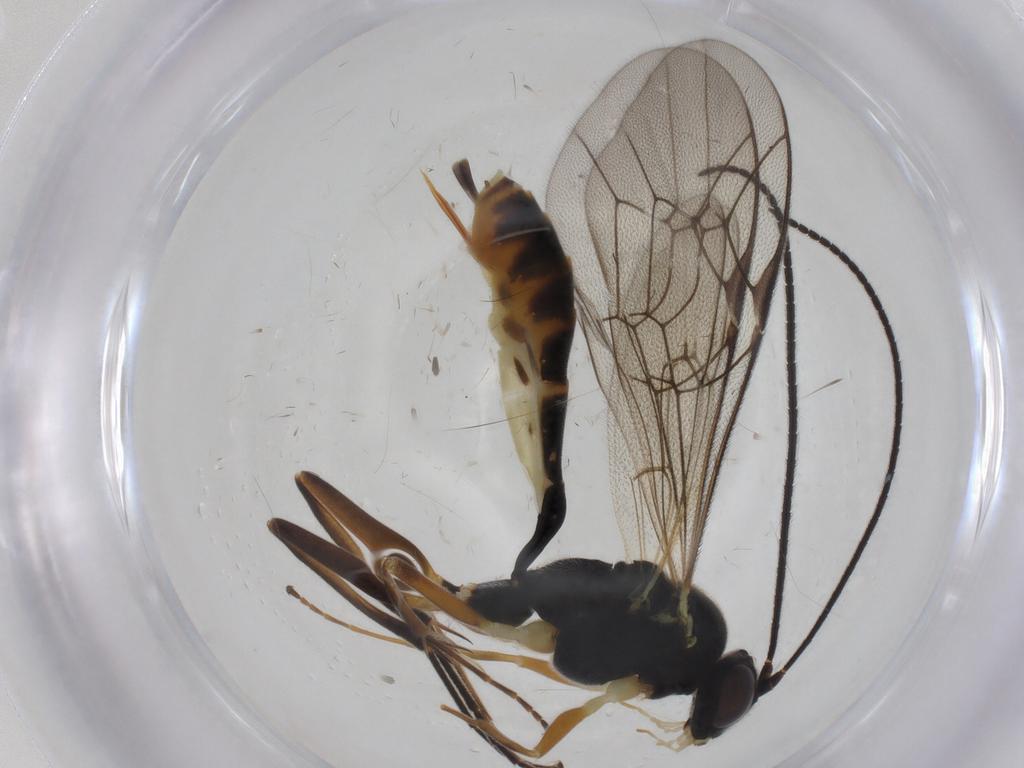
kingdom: Animalia
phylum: Arthropoda
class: Insecta
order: Hymenoptera
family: Ichneumonidae
